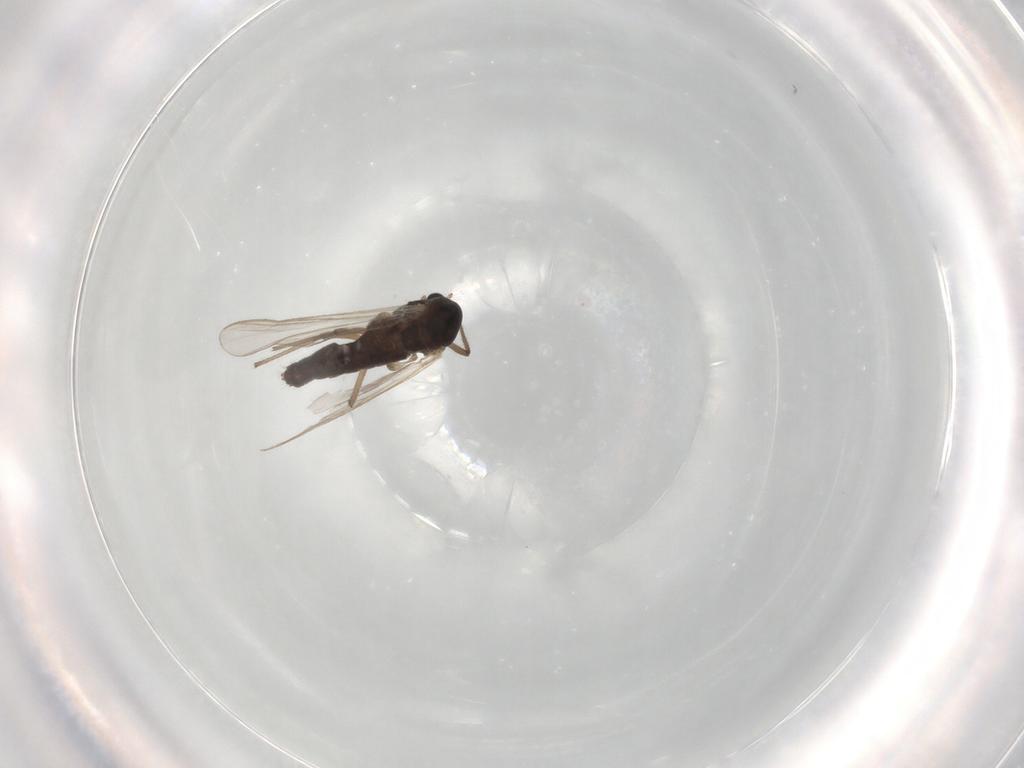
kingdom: Animalia
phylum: Arthropoda
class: Insecta
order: Diptera
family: Chironomidae
